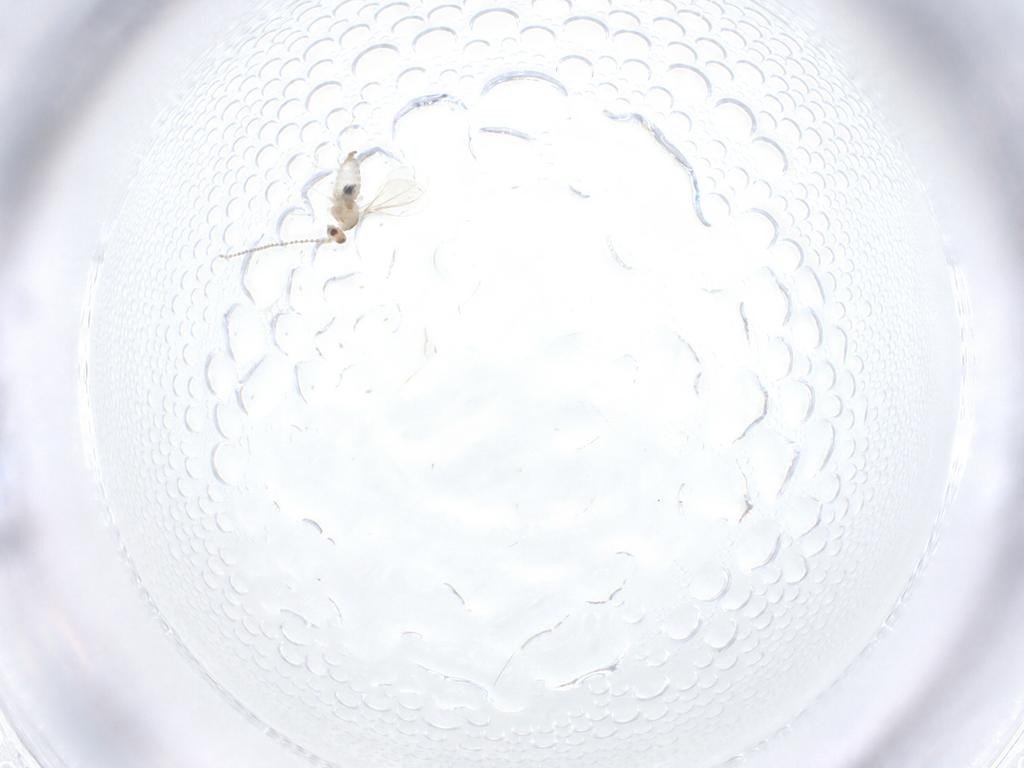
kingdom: Animalia
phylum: Arthropoda
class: Insecta
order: Diptera
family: Cecidomyiidae
